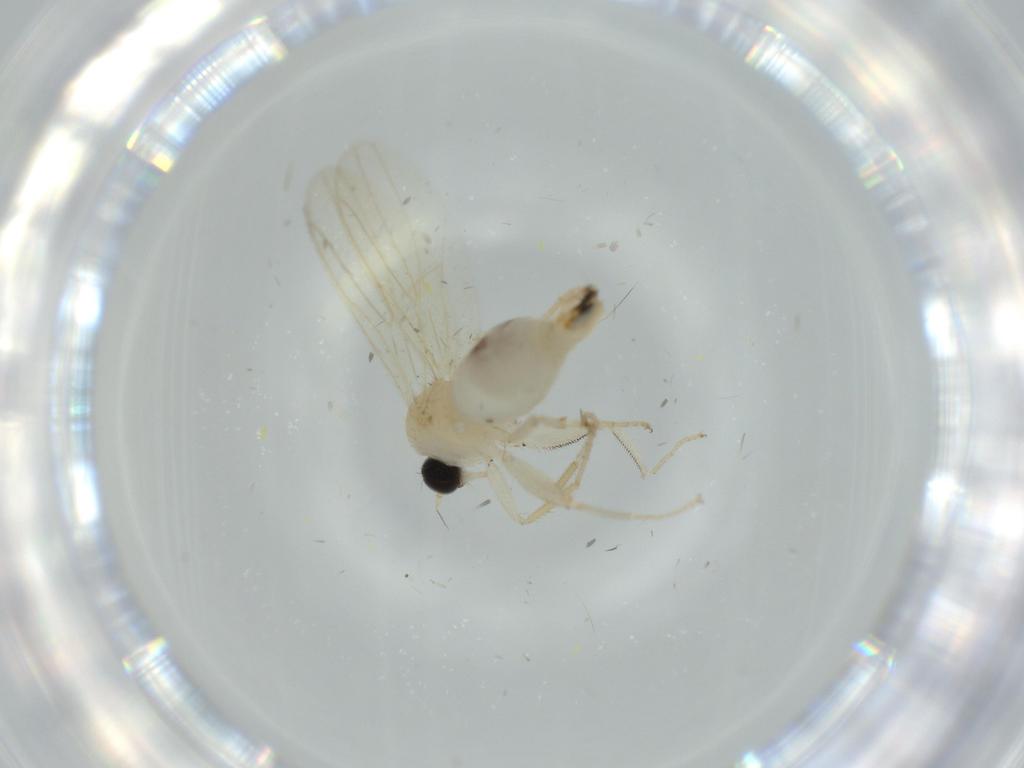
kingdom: Animalia
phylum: Arthropoda
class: Insecta
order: Diptera
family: Hybotidae
